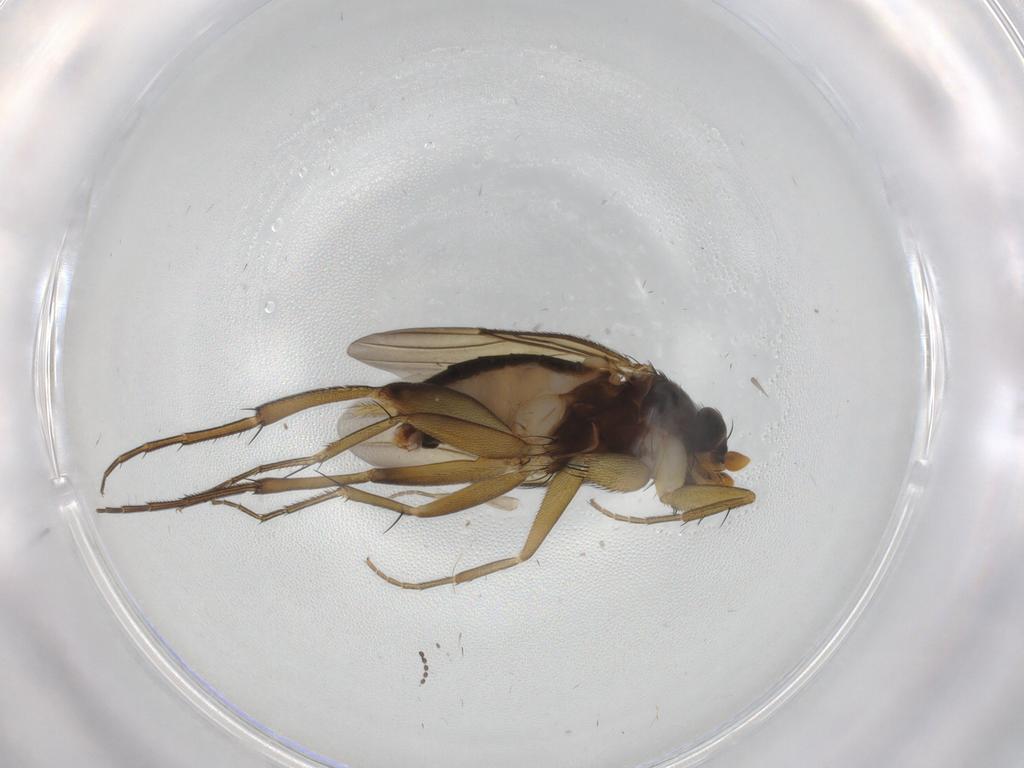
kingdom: Animalia
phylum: Arthropoda
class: Insecta
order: Diptera
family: Phoridae
